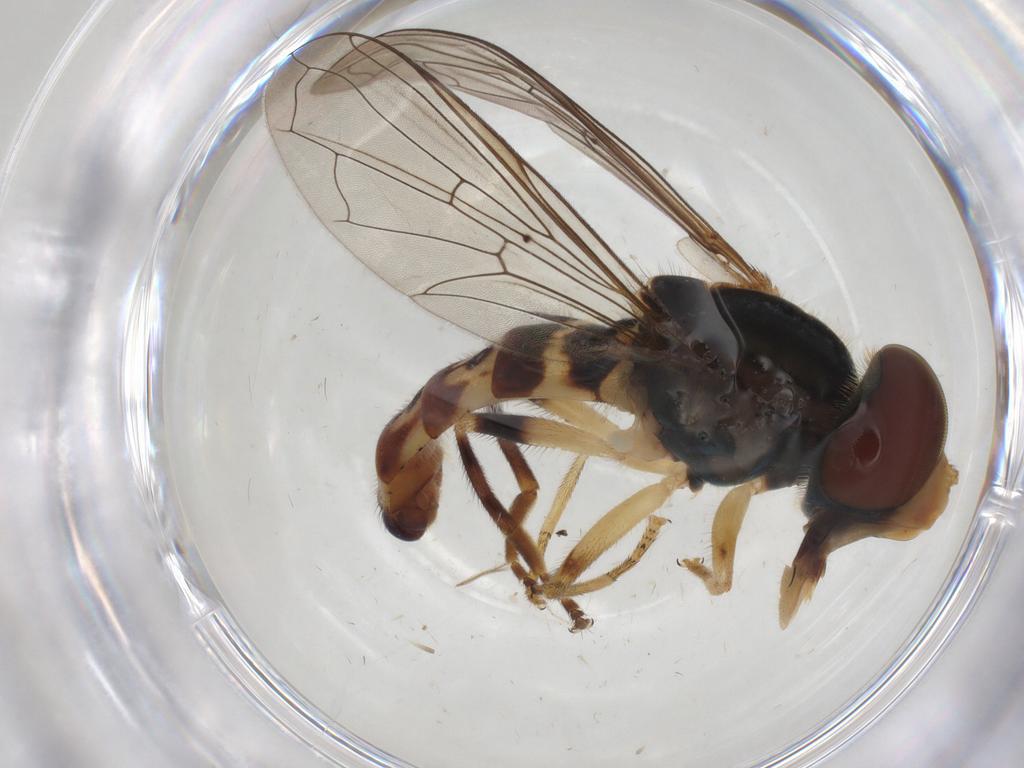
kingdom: Animalia
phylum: Arthropoda
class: Insecta
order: Diptera
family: Syrphidae
